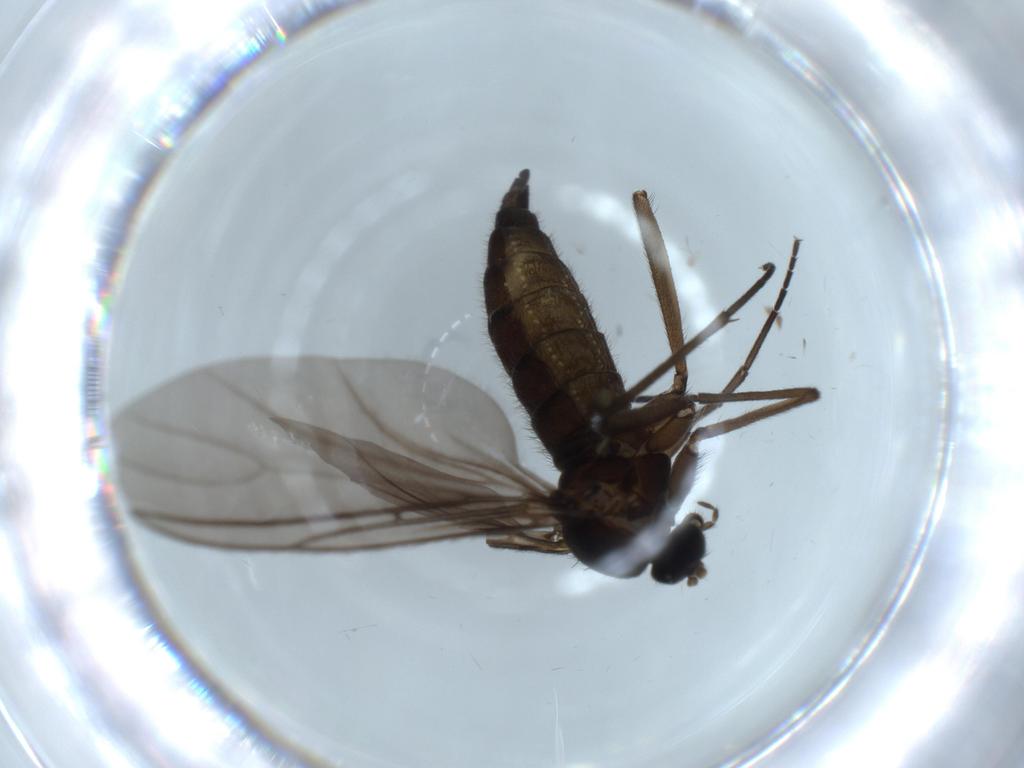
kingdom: Animalia
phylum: Arthropoda
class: Insecta
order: Diptera
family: Sciaridae
